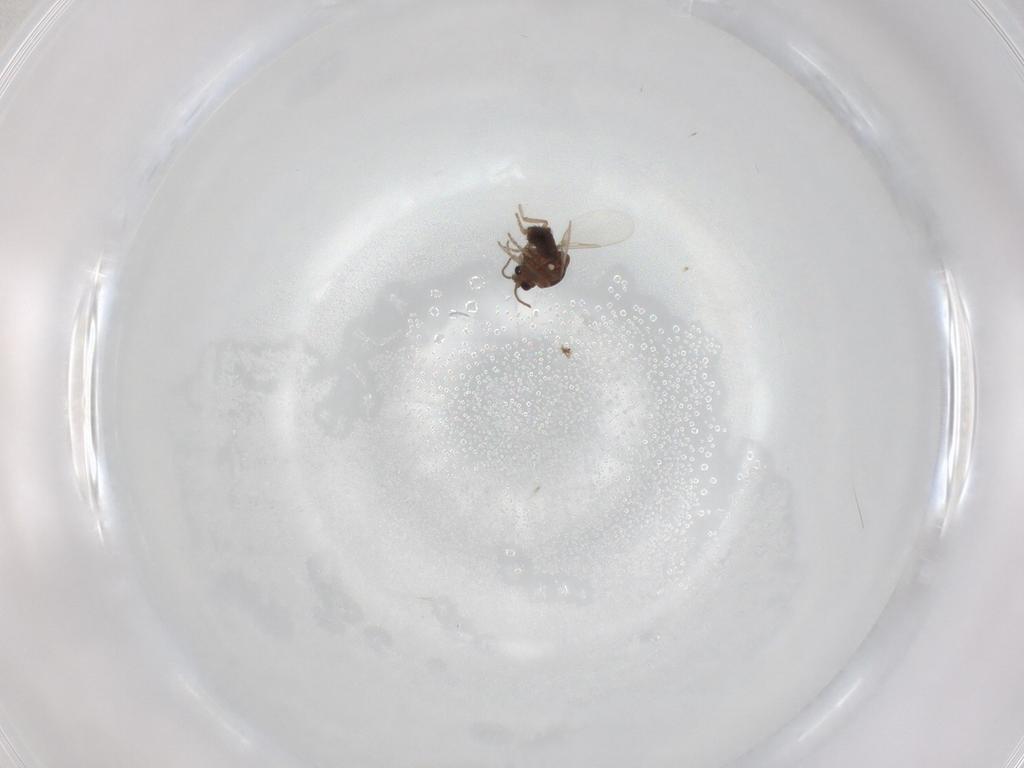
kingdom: Animalia
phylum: Arthropoda
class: Insecta
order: Diptera
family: Ceratopogonidae
